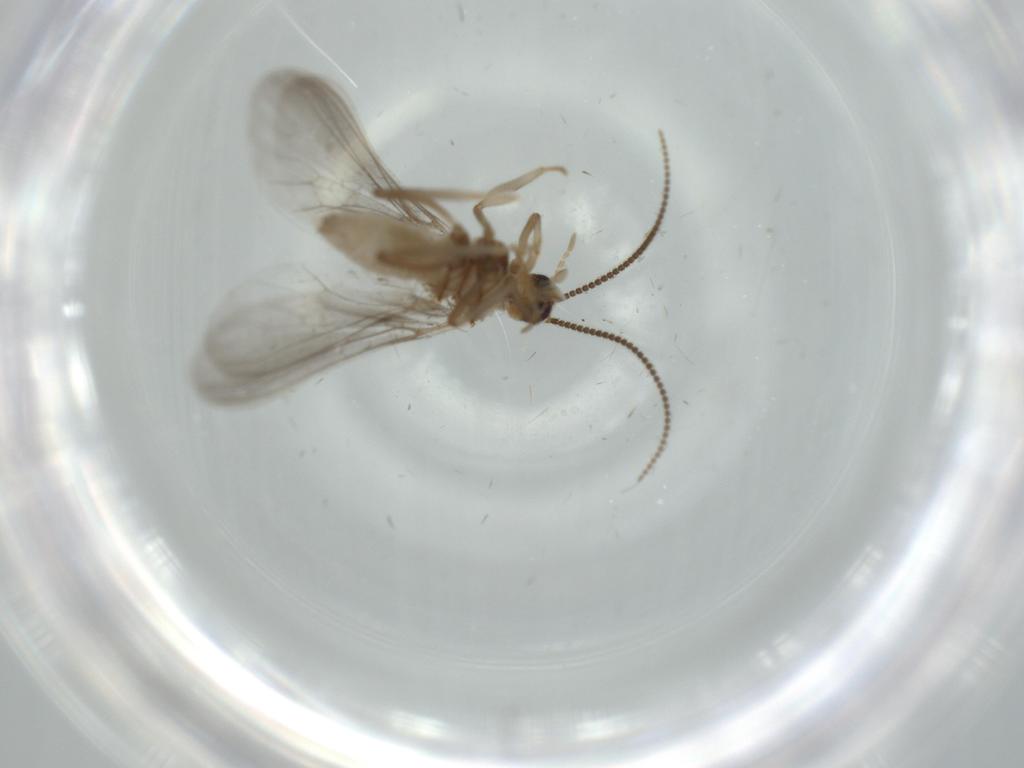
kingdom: Animalia
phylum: Arthropoda
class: Insecta
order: Neuroptera
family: Coniopterygidae
